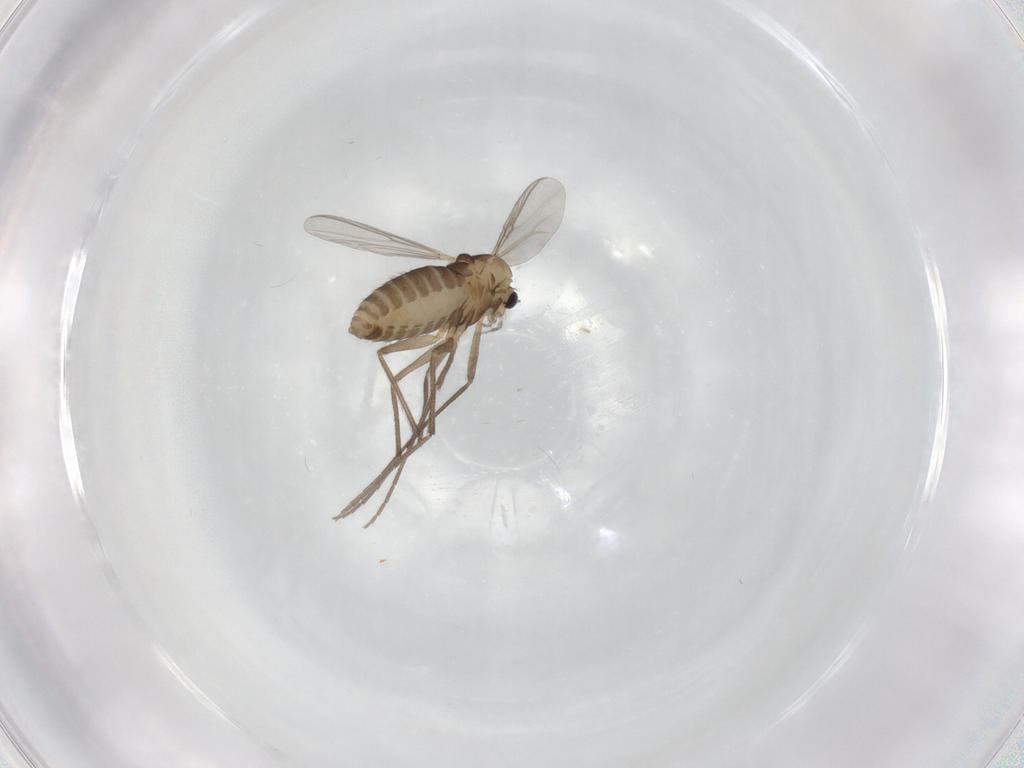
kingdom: Animalia
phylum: Arthropoda
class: Insecta
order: Diptera
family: Chironomidae
